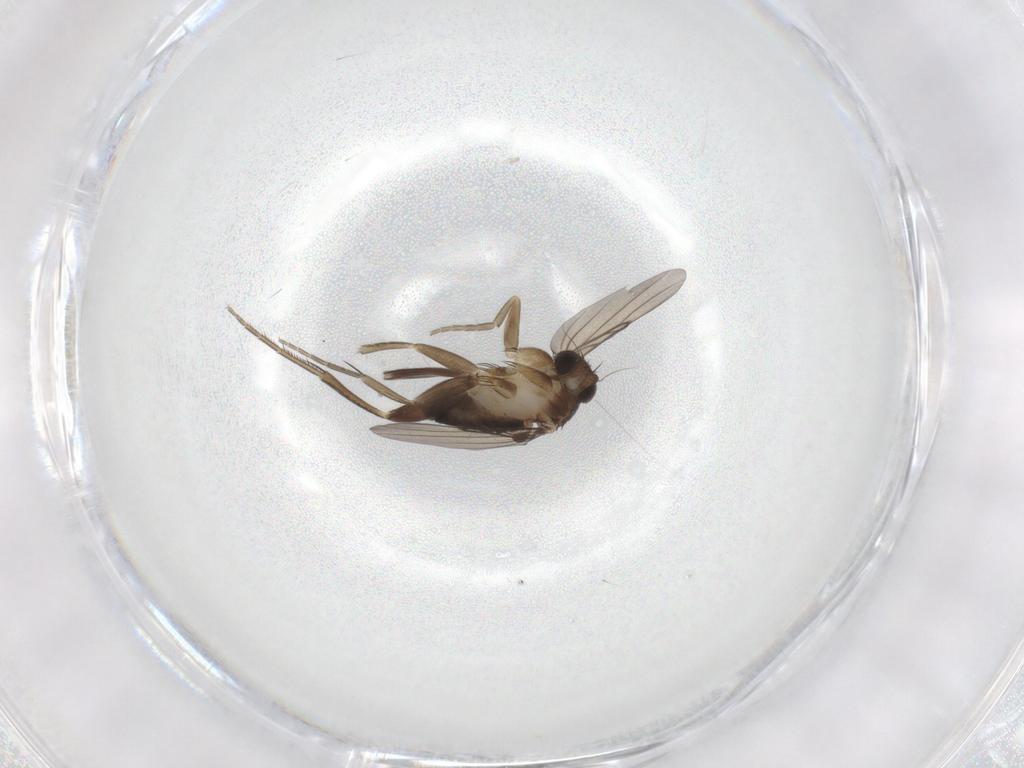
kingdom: Animalia
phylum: Arthropoda
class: Insecta
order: Diptera
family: Phoridae
